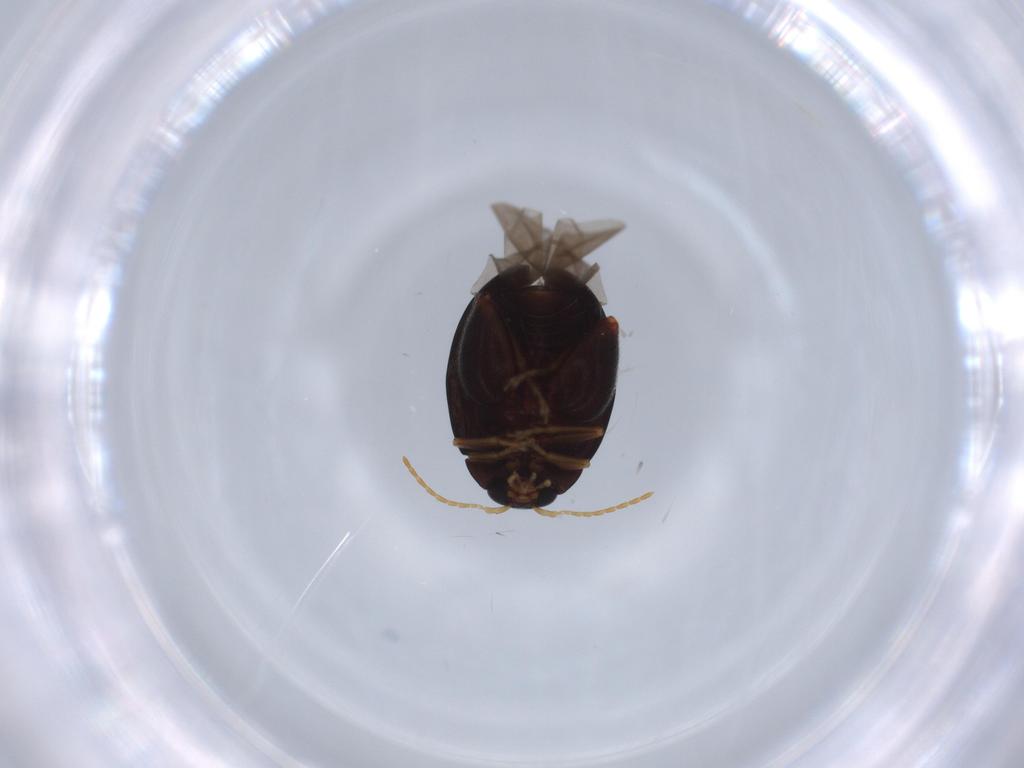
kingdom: Animalia
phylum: Arthropoda
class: Insecta
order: Coleoptera
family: Chrysomelidae
